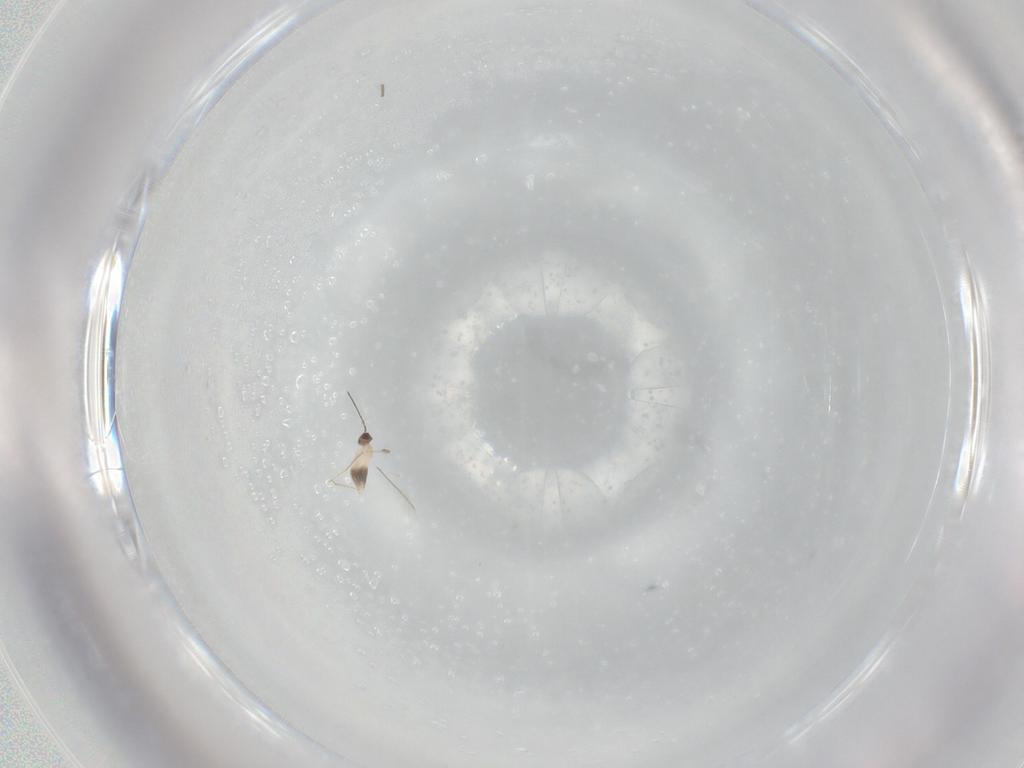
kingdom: Animalia
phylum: Arthropoda
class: Insecta
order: Hymenoptera
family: Mymaridae
